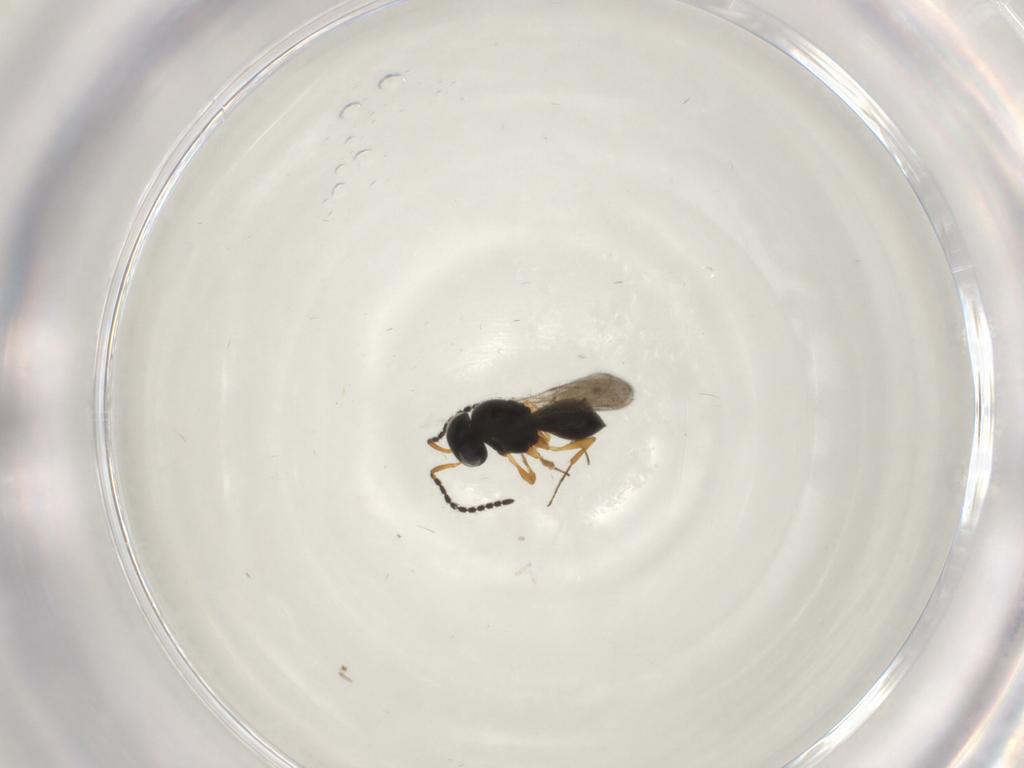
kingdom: Animalia
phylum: Arthropoda
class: Insecta
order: Hymenoptera
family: Scelionidae
